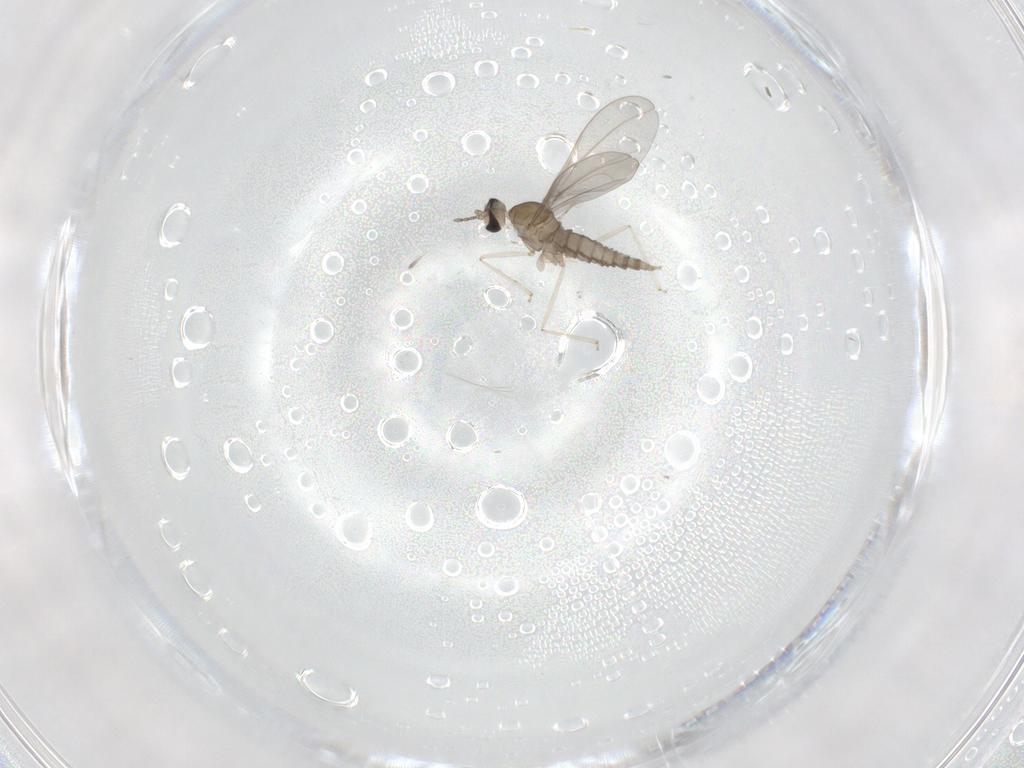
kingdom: Animalia
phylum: Arthropoda
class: Insecta
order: Diptera
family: Cecidomyiidae
